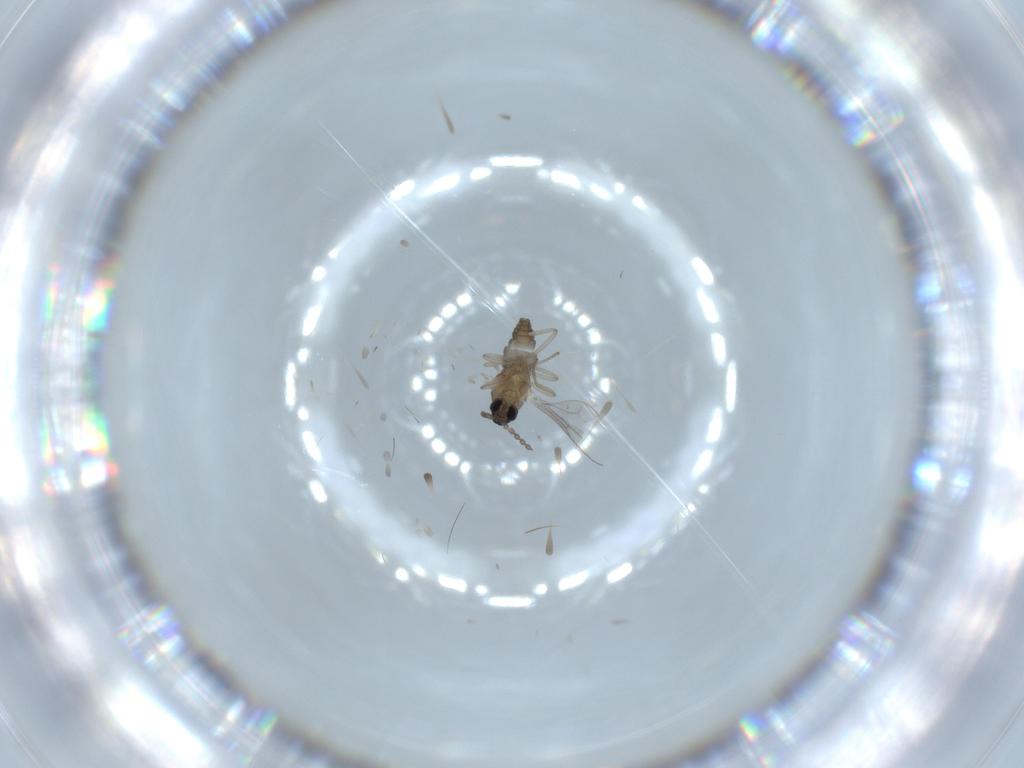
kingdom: Animalia
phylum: Arthropoda
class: Insecta
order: Diptera
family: Cecidomyiidae
